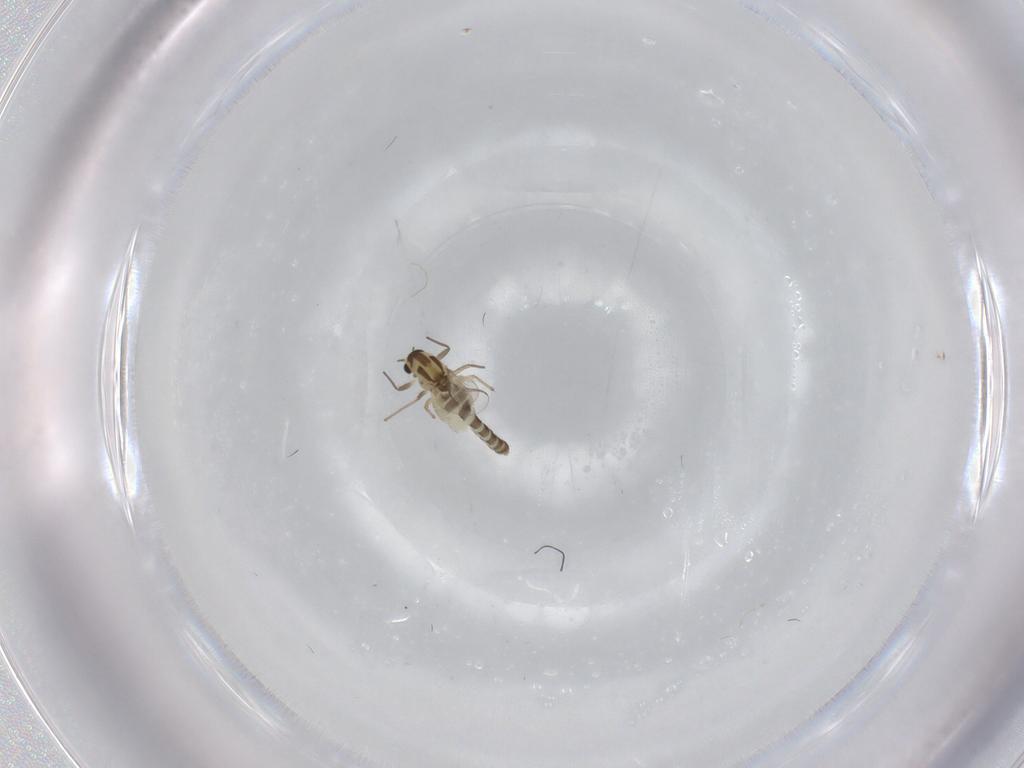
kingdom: Animalia
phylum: Arthropoda
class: Insecta
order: Diptera
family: Chironomidae
